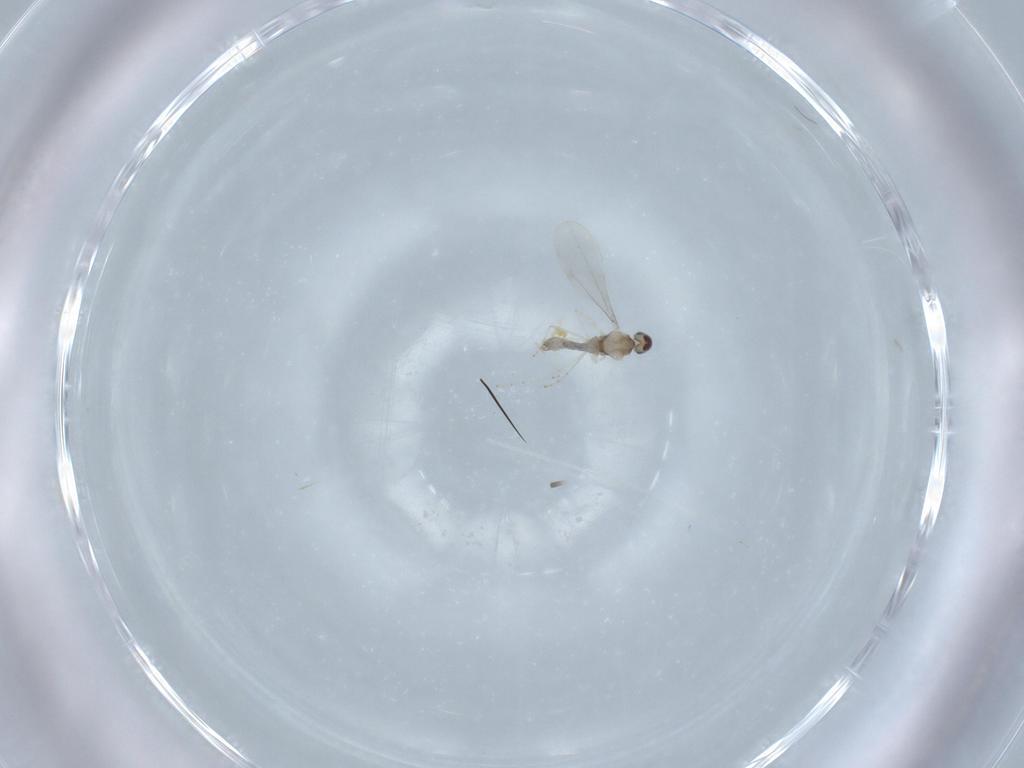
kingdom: Animalia
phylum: Arthropoda
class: Insecta
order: Diptera
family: Cecidomyiidae
